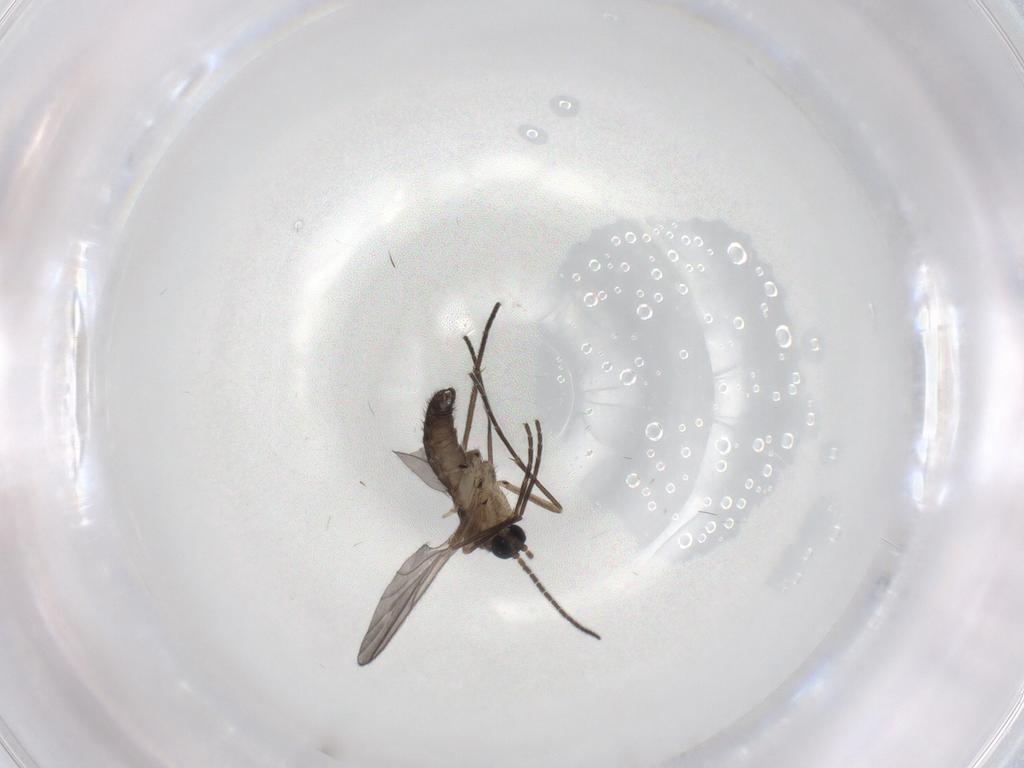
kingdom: Animalia
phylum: Arthropoda
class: Insecta
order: Diptera
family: Sciaridae
